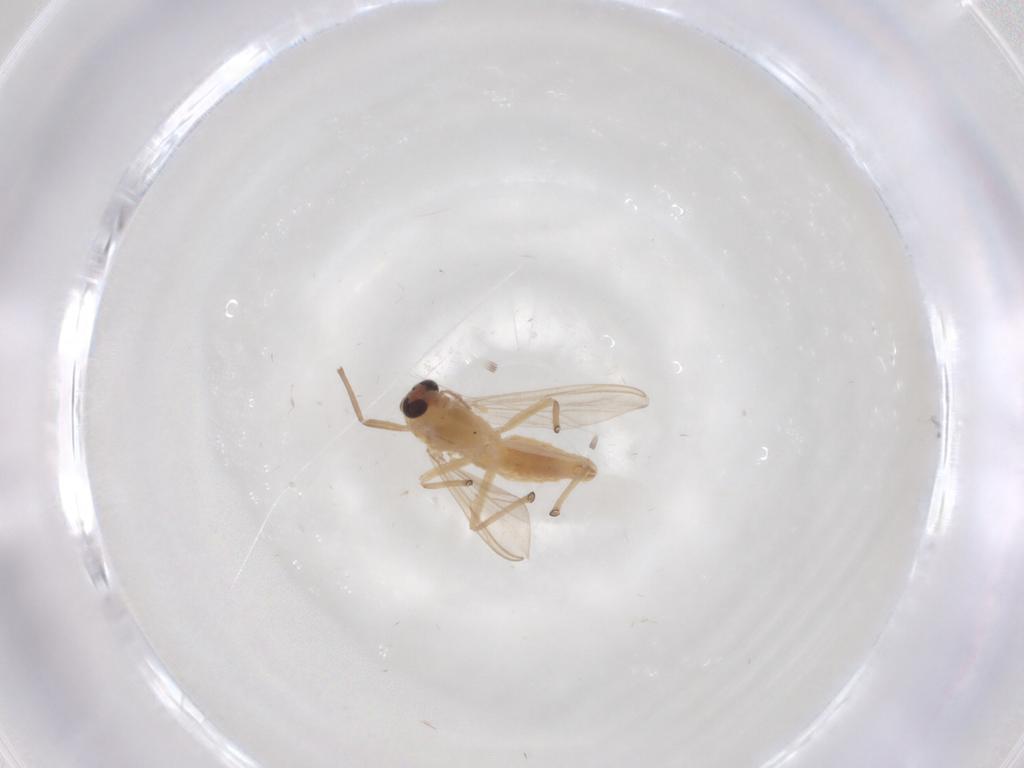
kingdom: Animalia
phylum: Arthropoda
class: Insecta
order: Diptera
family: Chironomidae
